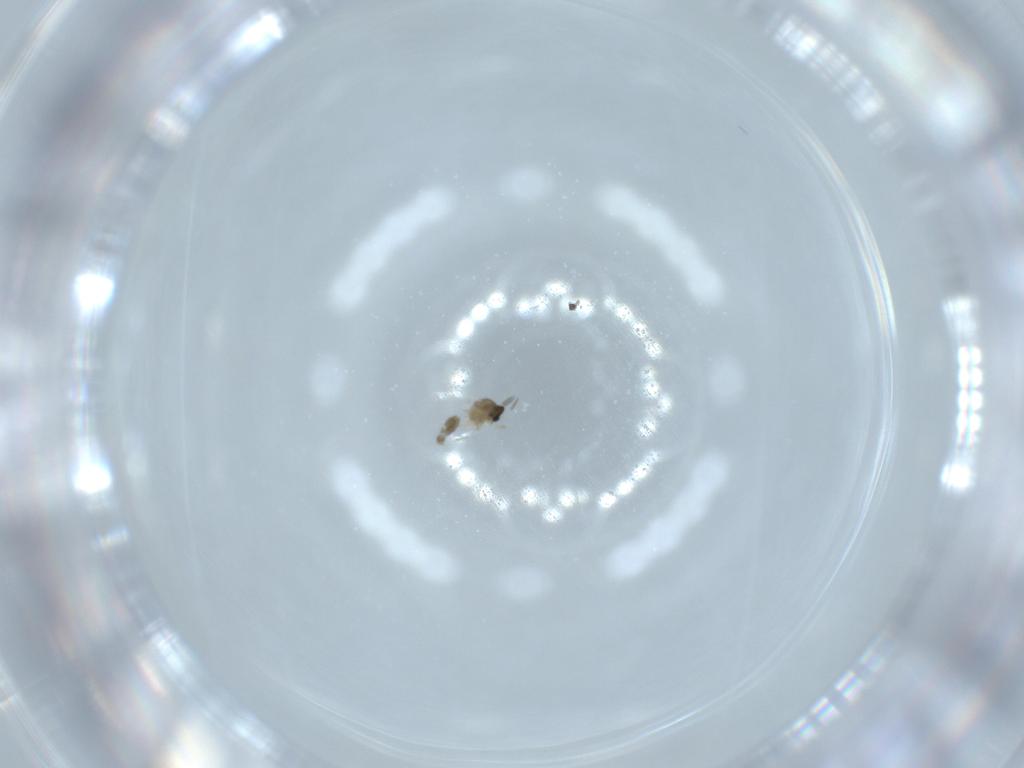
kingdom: Animalia
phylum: Arthropoda
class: Insecta
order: Diptera
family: Cecidomyiidae
